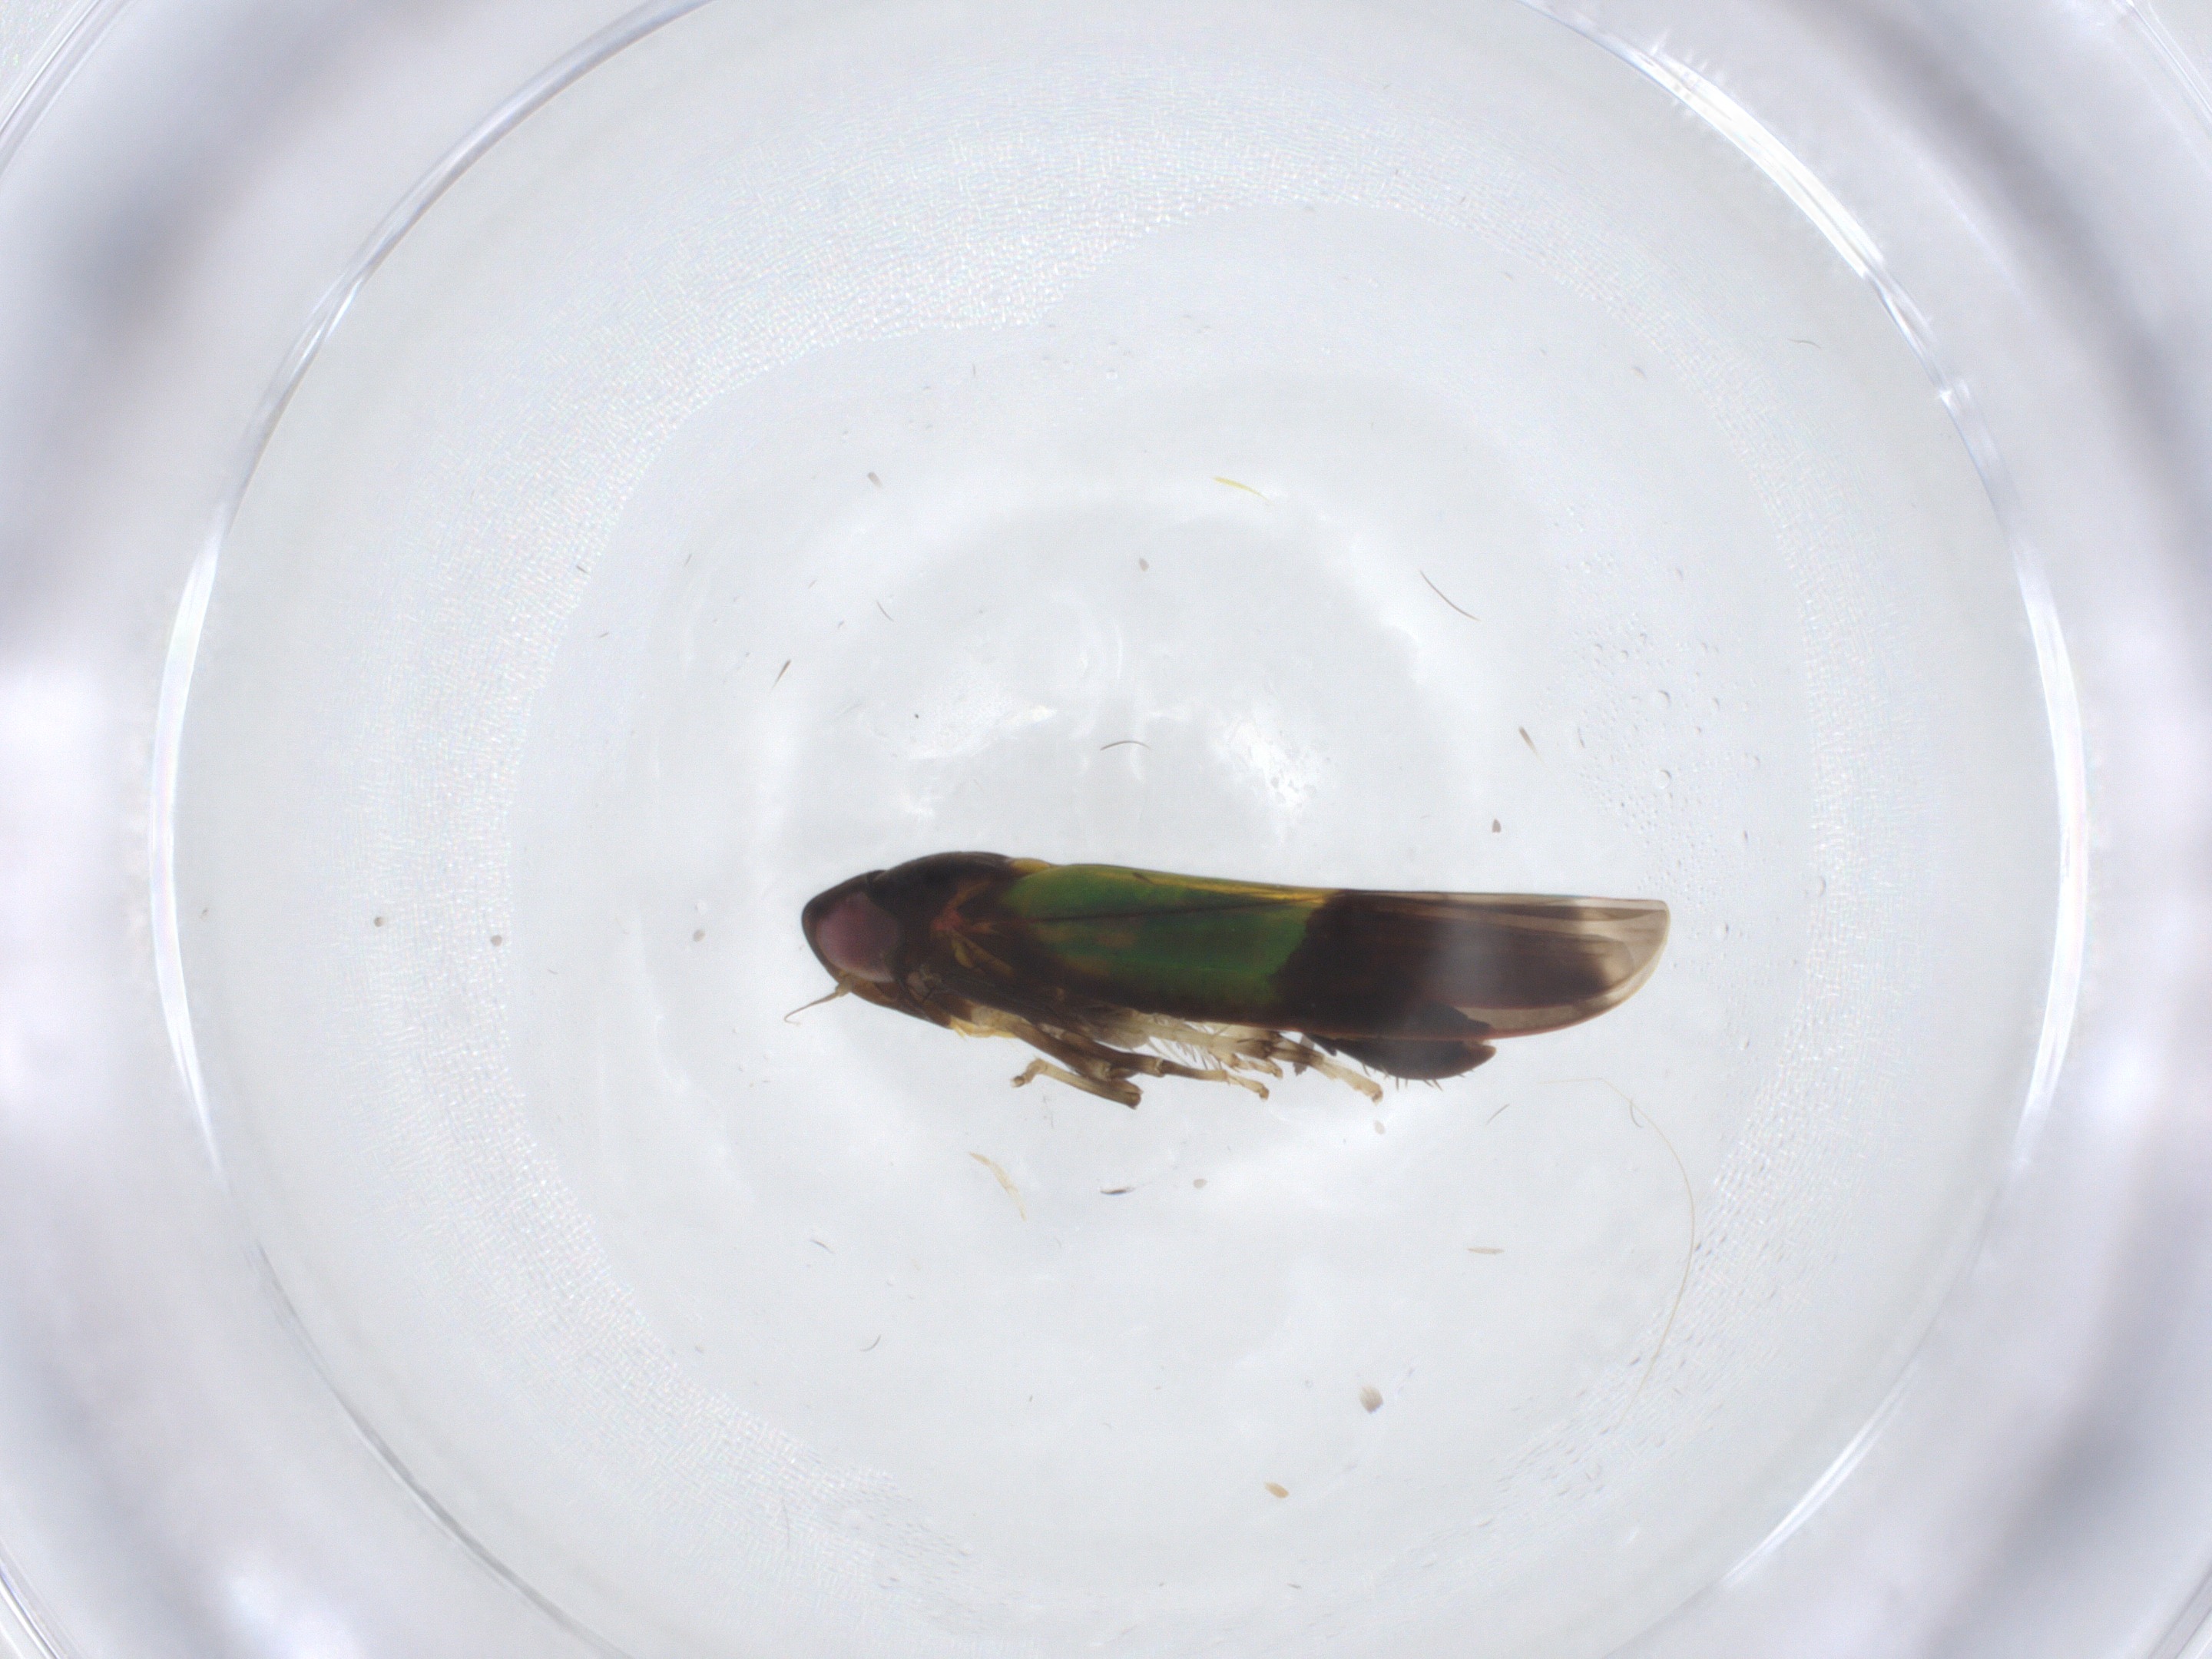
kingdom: Animalia
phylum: Arthropoda
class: Insecta
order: Hemiptera
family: Cicadellidae
